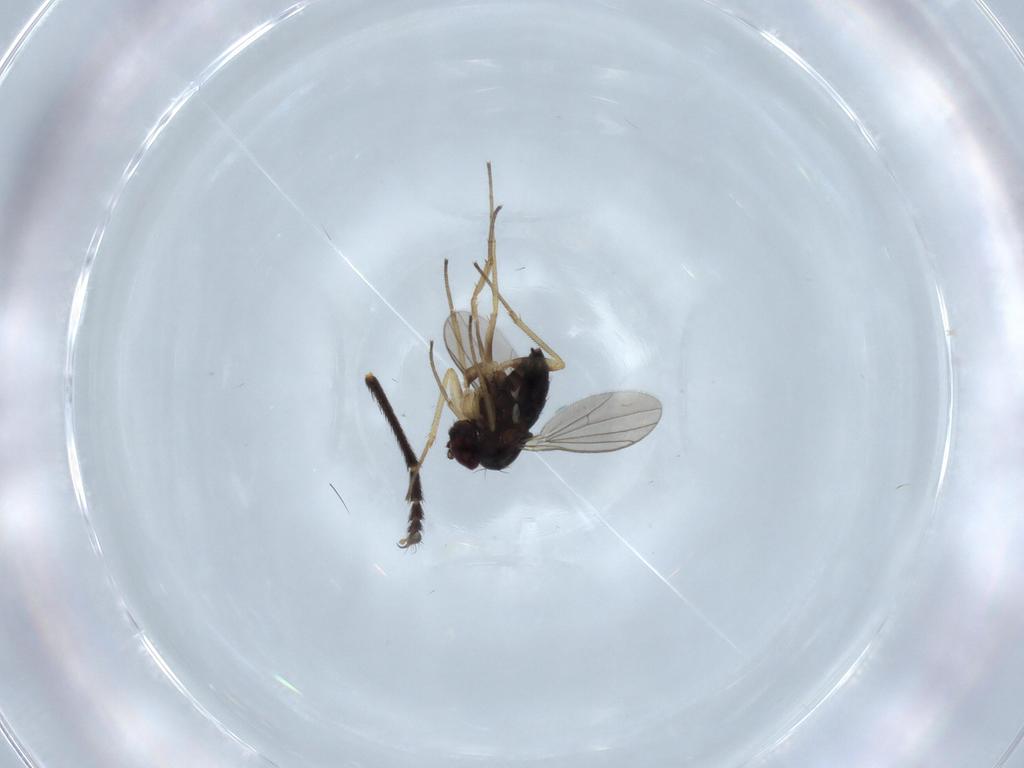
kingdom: Animalia
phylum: Arthropoda
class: Insecta
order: Diptera
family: Dolichopodidae
